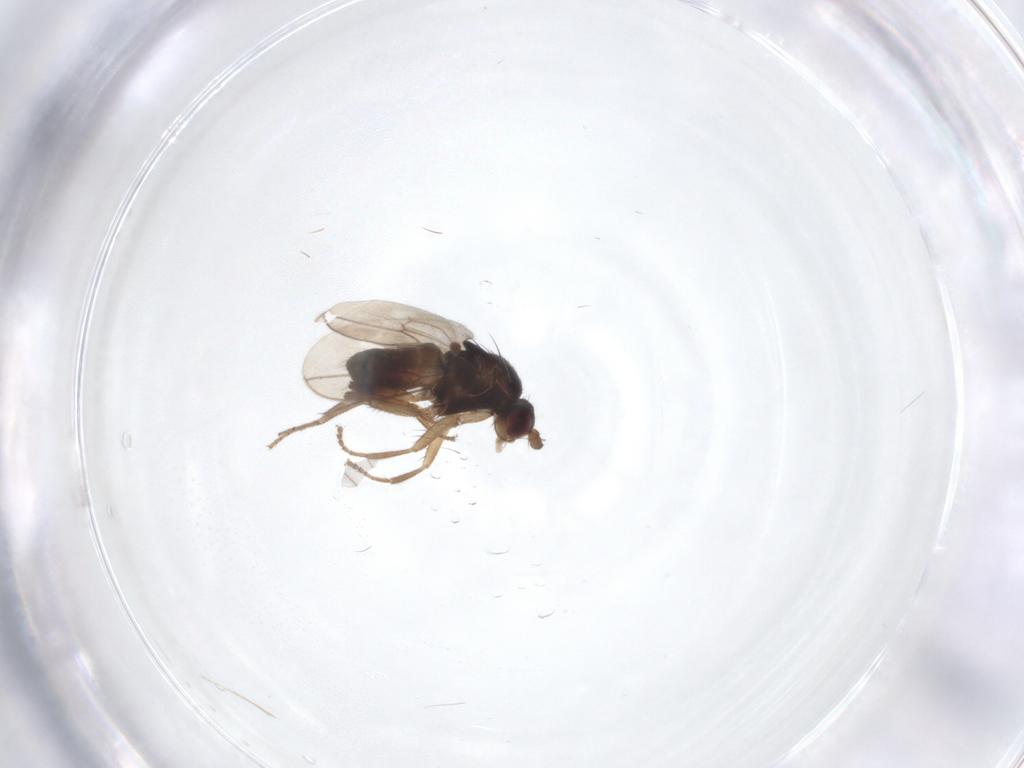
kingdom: Animalia
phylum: Arthropoda
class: Insecta
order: Diptera
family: Sphaeroceridae
